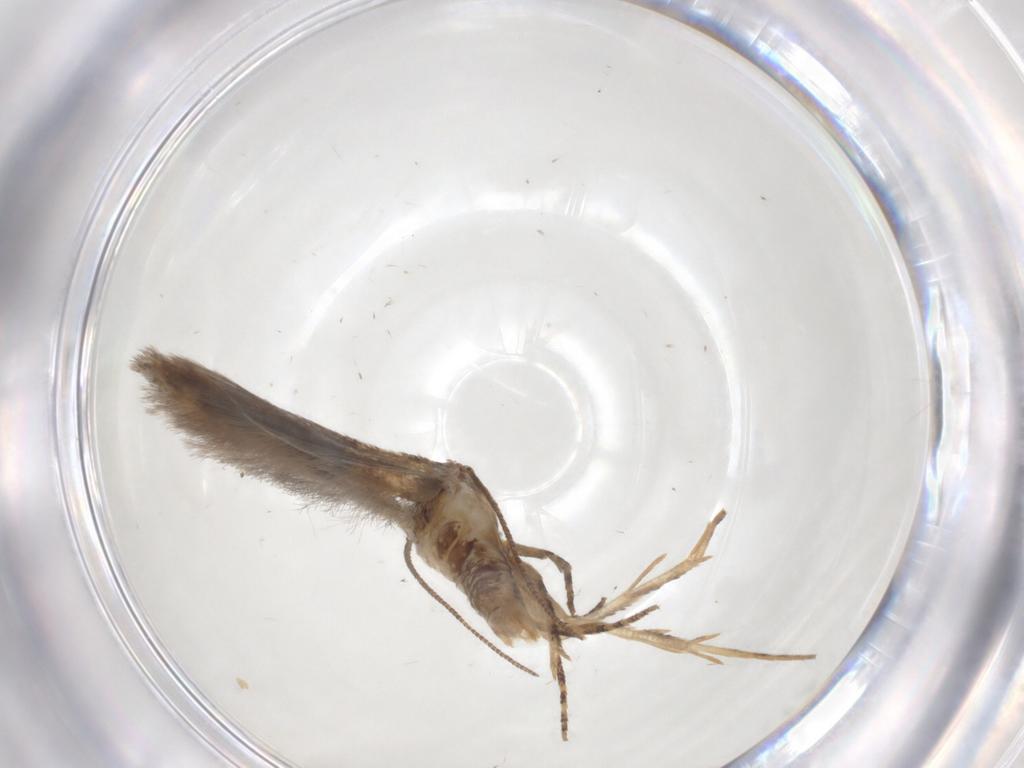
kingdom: Animalia
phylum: Arthropoda
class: Insecta
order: Lepidoptera
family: Gelechiidae
